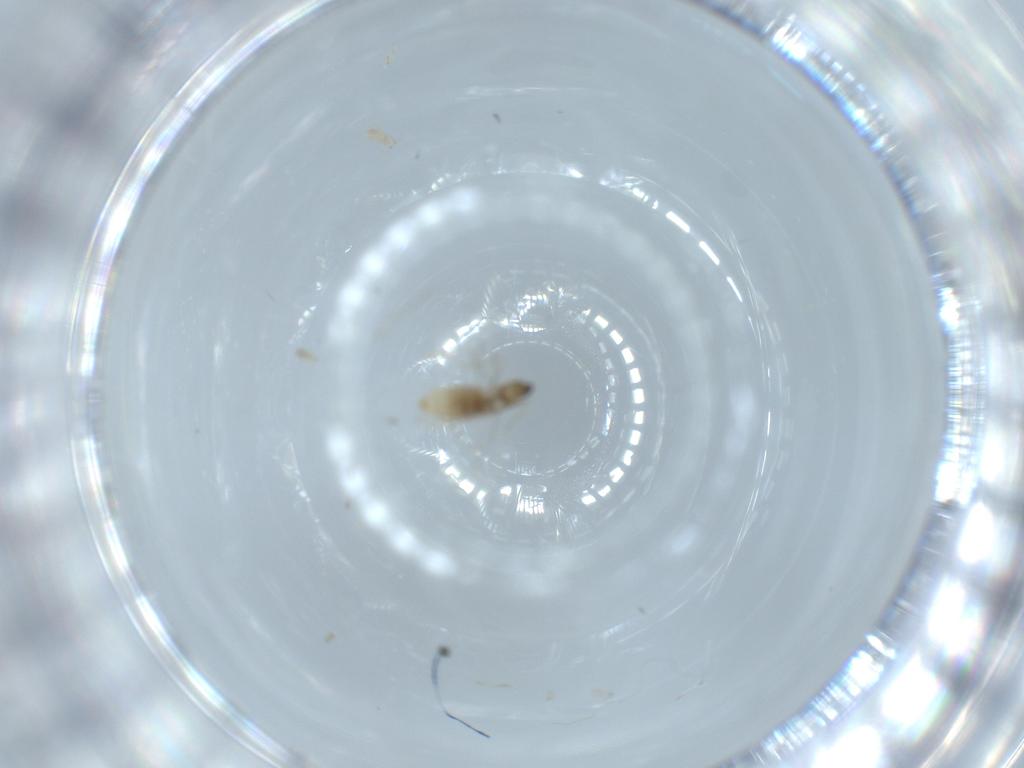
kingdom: Animalia
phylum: Arthropoda
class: Insecta
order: Diptera
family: Cecidomyiidae
